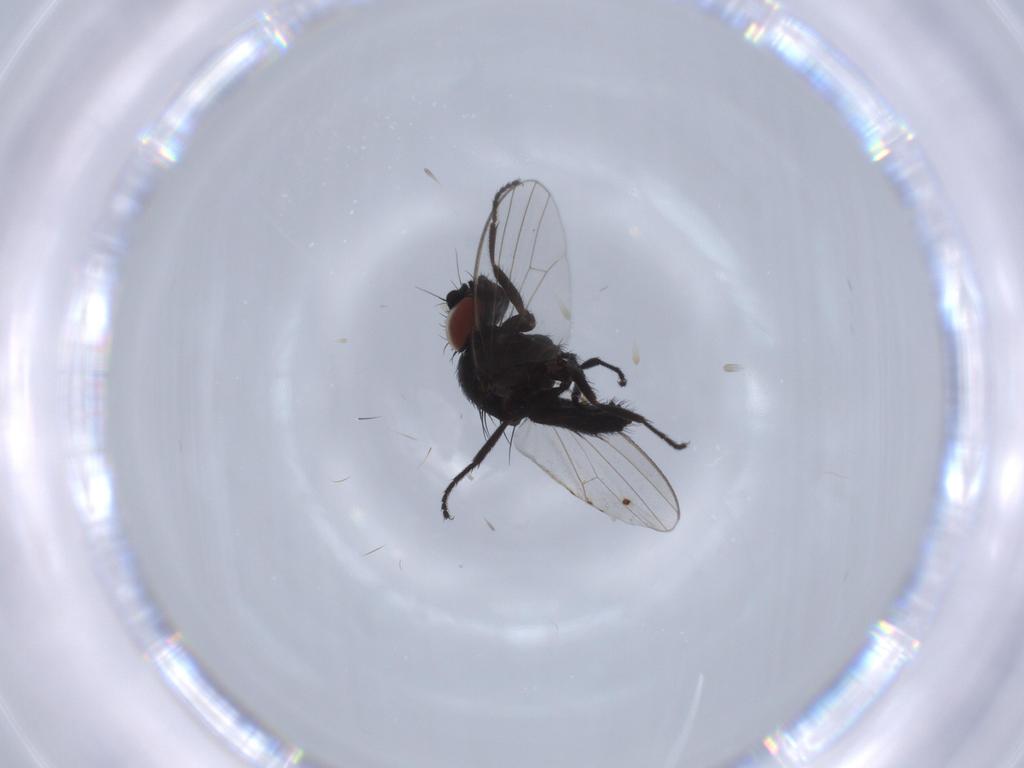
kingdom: Animalia
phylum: Arthropoda
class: Insecta
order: Diptera
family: Milichiidae
